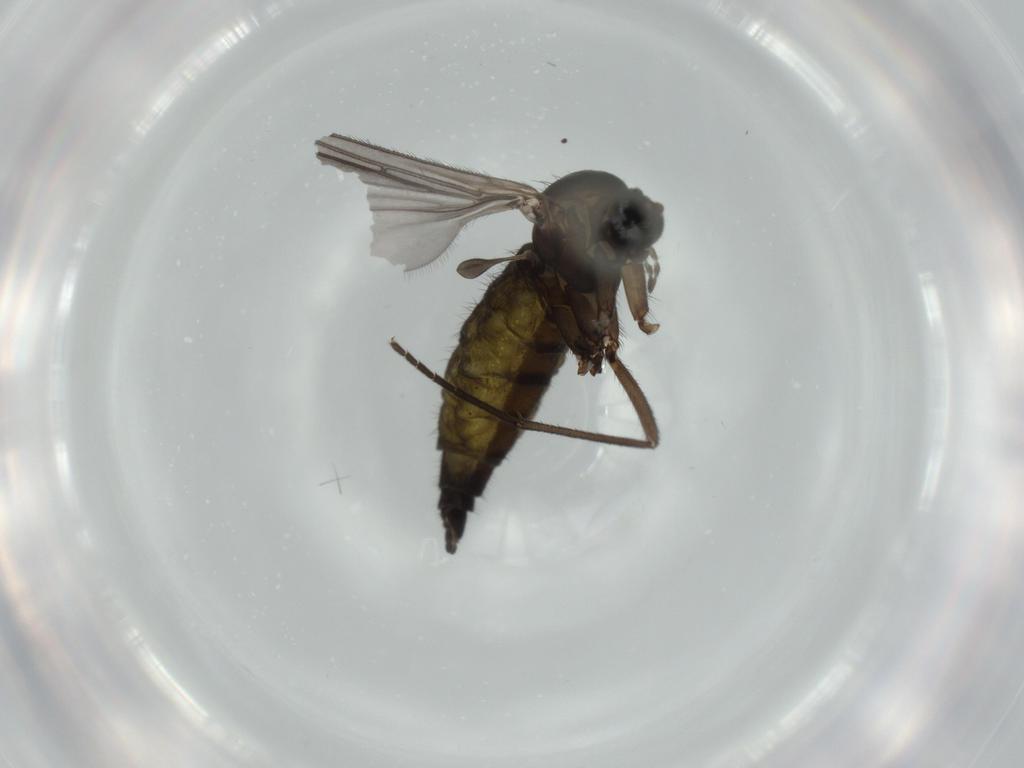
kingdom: Animalia
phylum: Arthropoda
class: Insecta
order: Diptera
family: Sciaridae
